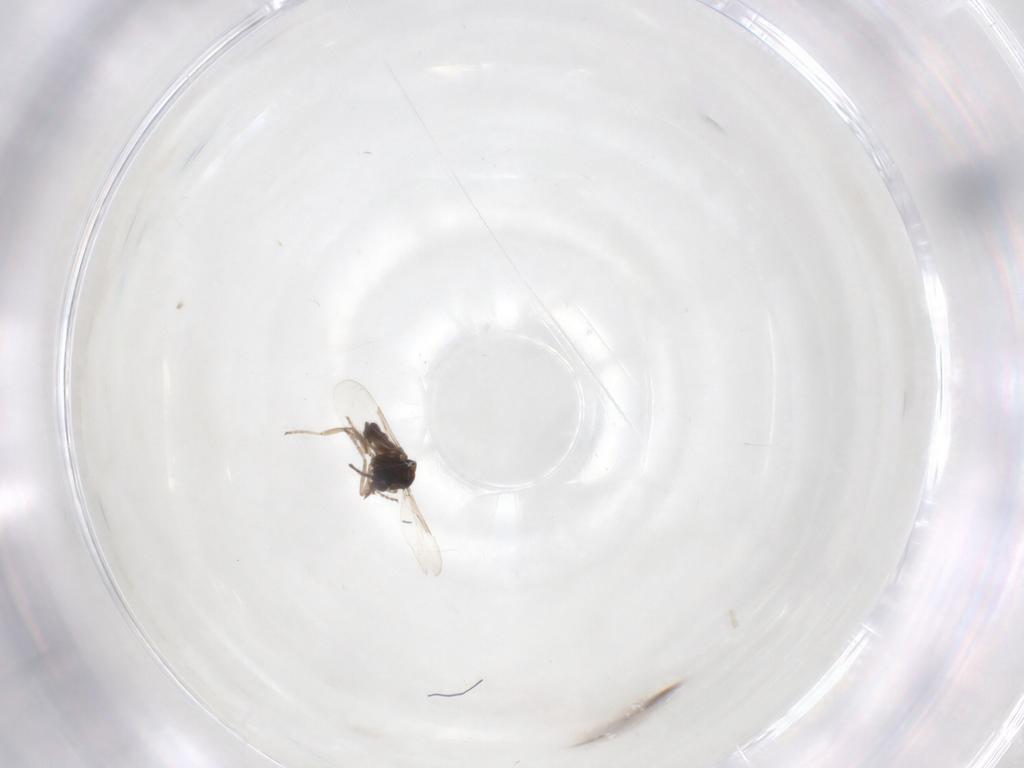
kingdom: Animalia
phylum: Arthropoda
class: Insecta
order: Diptera
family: Ceratopogonidae
